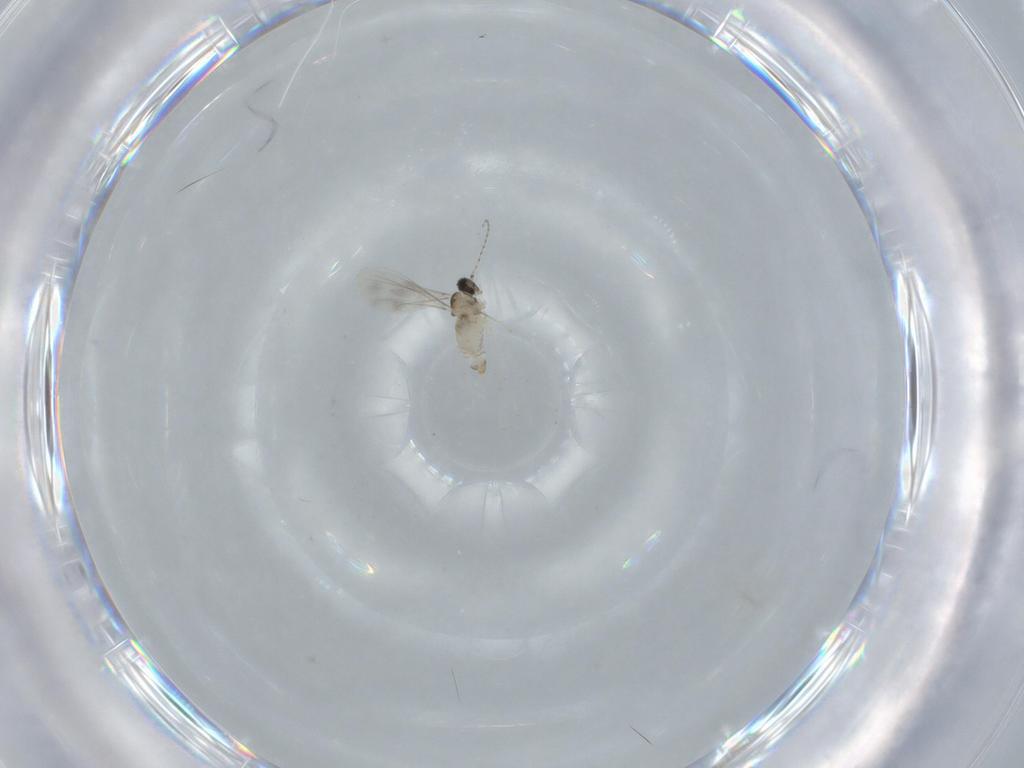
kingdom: Animalia
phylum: Arthropoda
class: Insecta
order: Diptera
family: Cecidomyiidae
